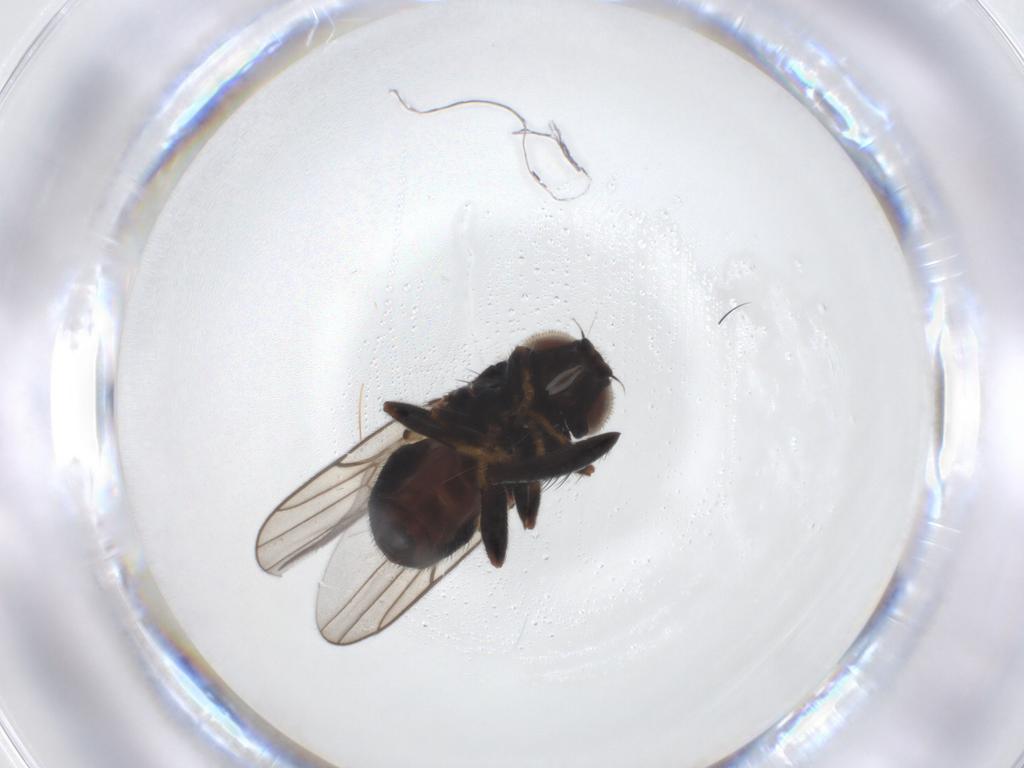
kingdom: Animalia
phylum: Arthropoda
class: Insecta
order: Diptera
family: Chloropidae
